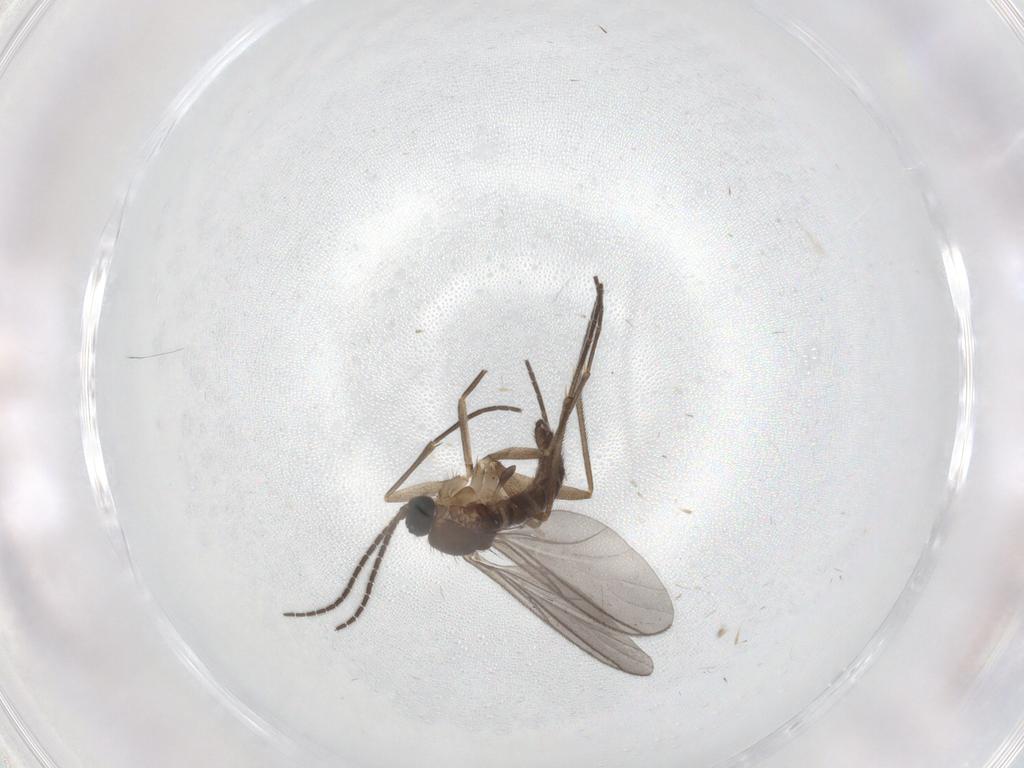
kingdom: Animalia
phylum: Arthropoda
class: Insecta
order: Diptera
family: Sciaridae
